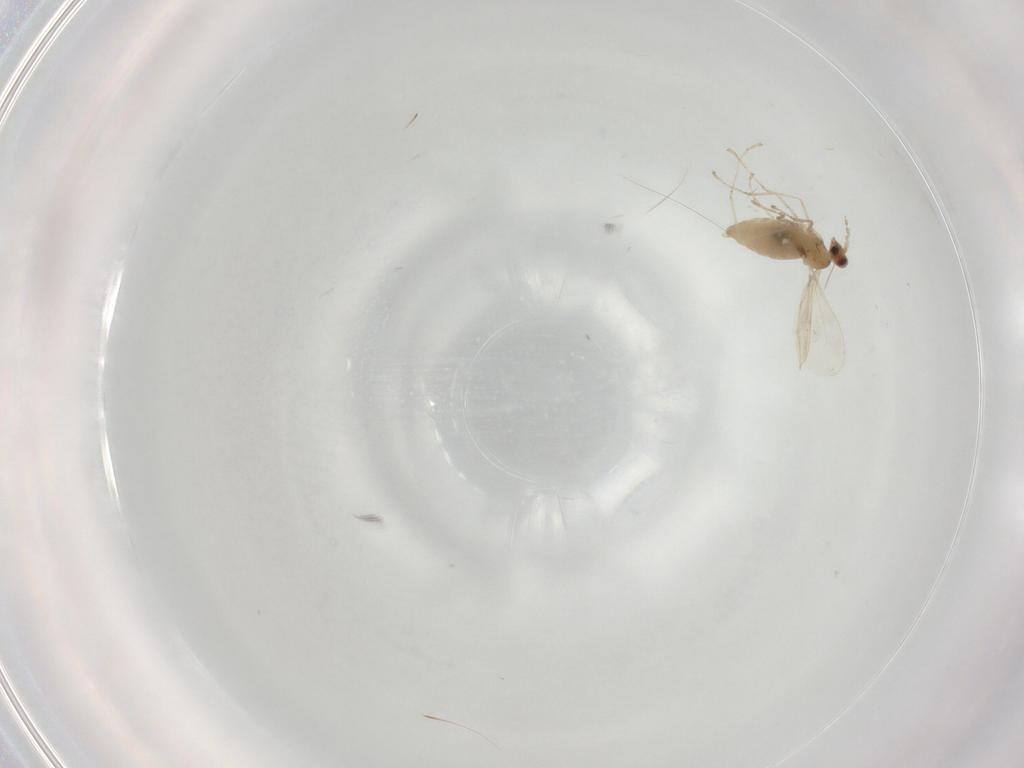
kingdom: Animalia
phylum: Arthropoda
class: Insecta
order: Diptera
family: Cecidomyiidae
